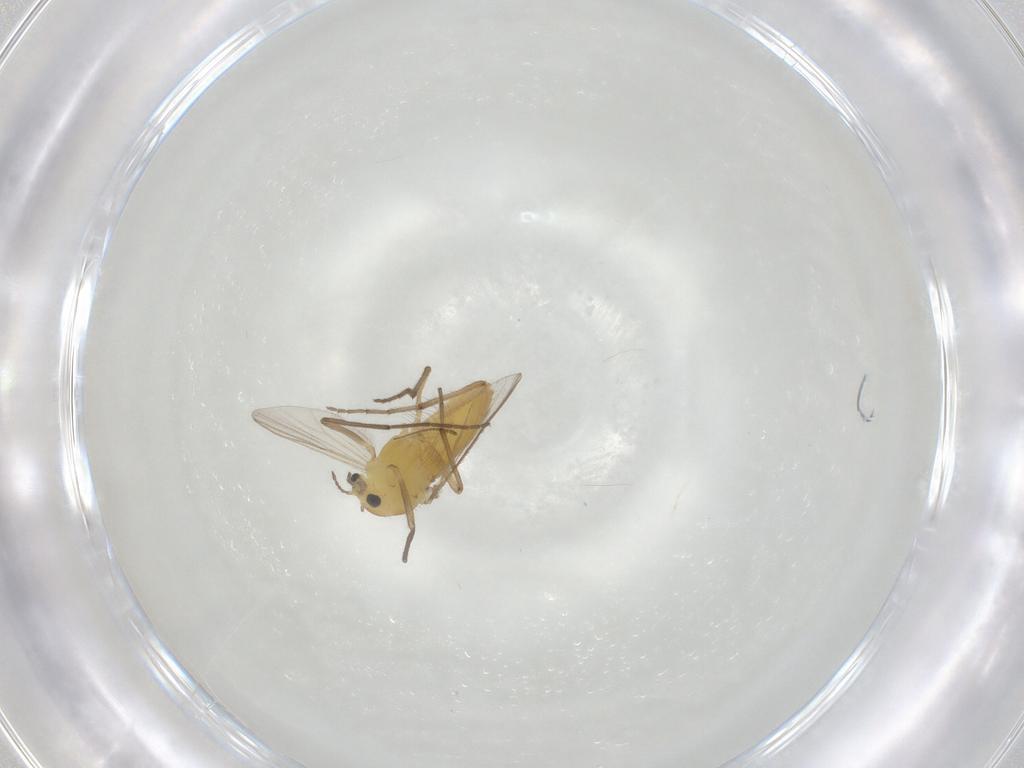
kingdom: Animalia
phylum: Arthropoda
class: Insecta
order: Diptera
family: Chironomidae
